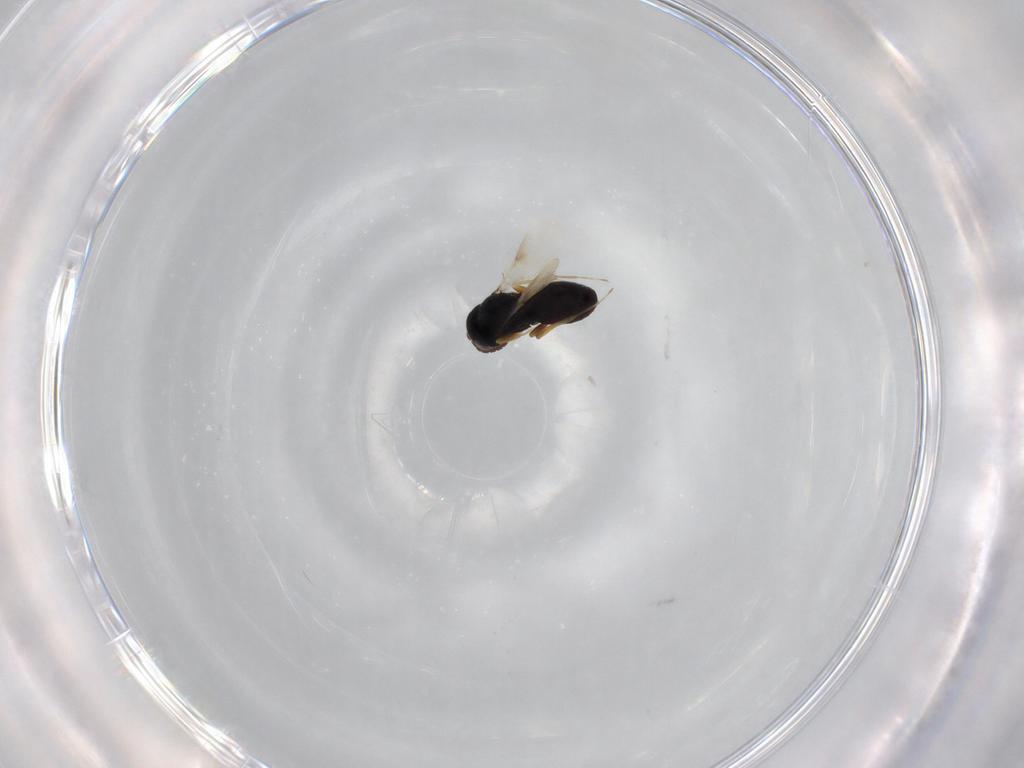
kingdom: Animalia
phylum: Arthropoda
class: Insecta
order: Hymenoptera
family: Scelionidae
